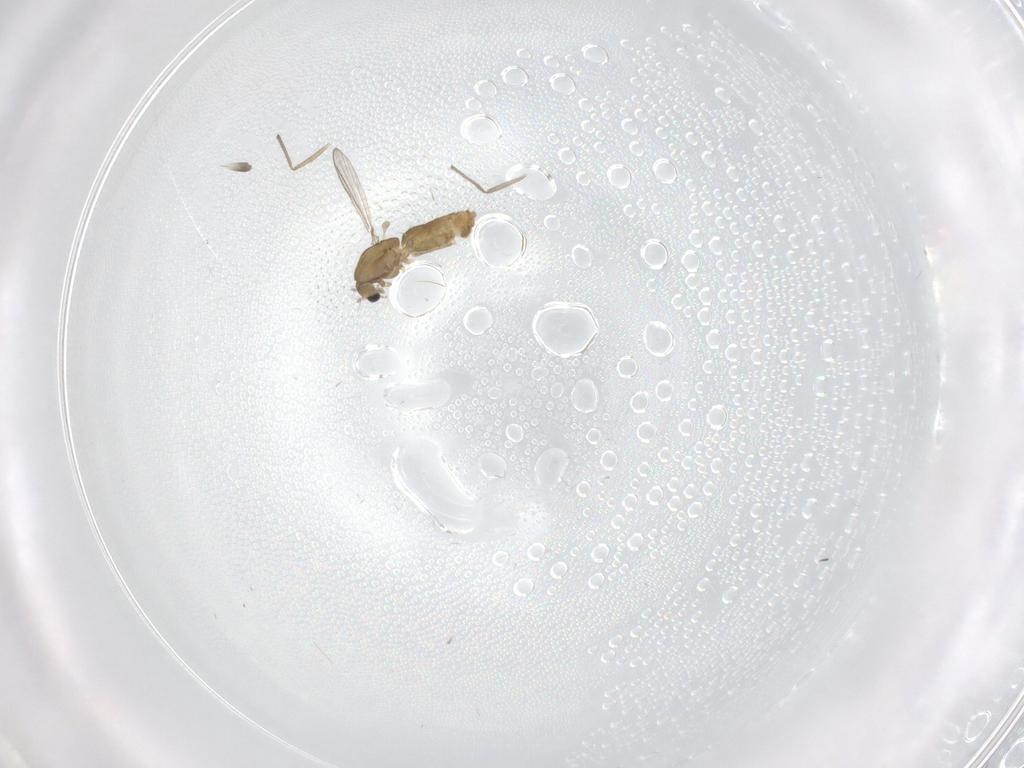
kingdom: Animalia
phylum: Arthropoda
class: Insecta
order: Diptera
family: Chironomidae
